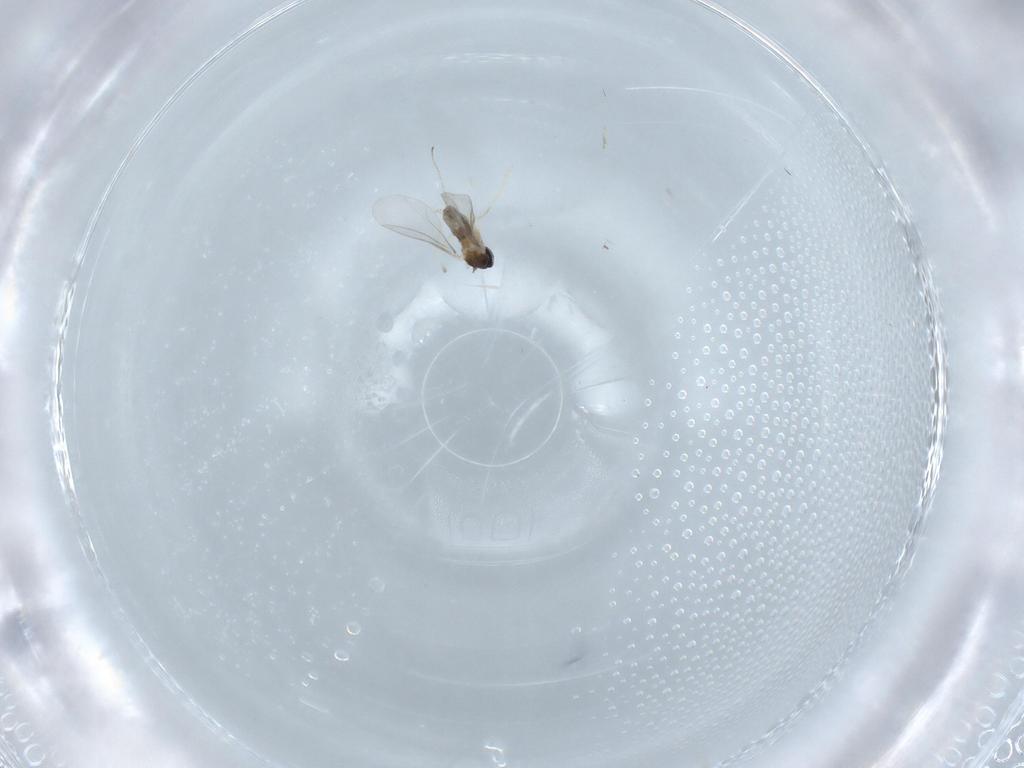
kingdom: Animalia
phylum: Arthropoda
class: Insecta
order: Diptera
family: Cecidomyiidae
